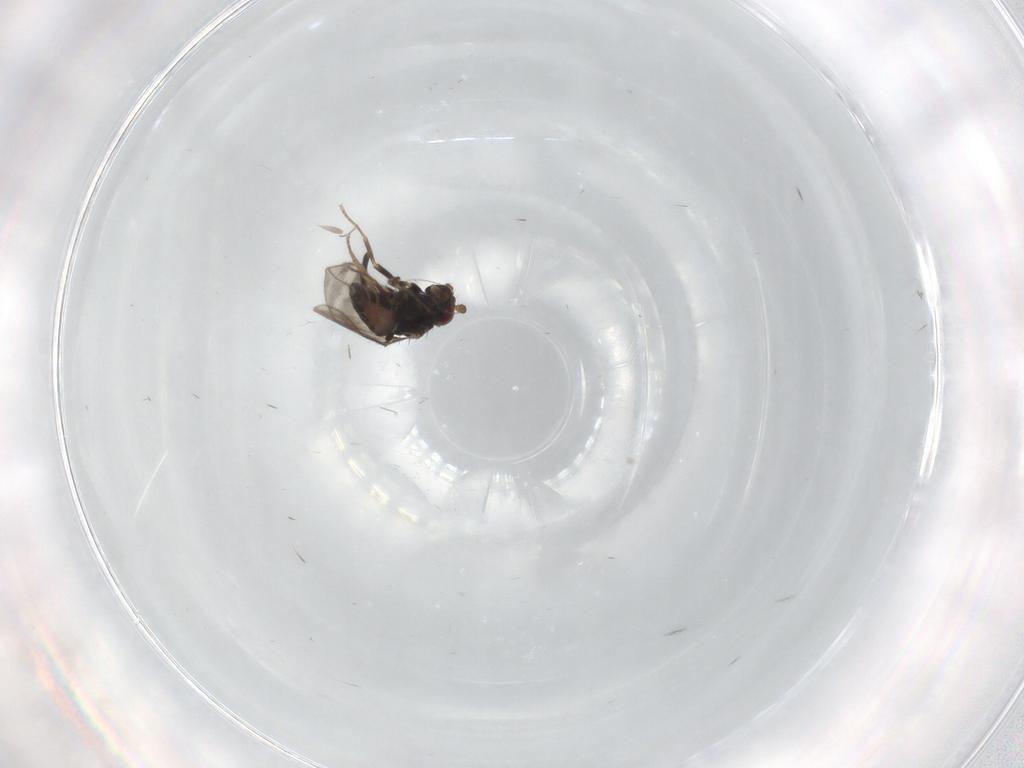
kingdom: Animalia
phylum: Arthropoda
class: Insecta
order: Diptera
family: Sphaeroceridae
